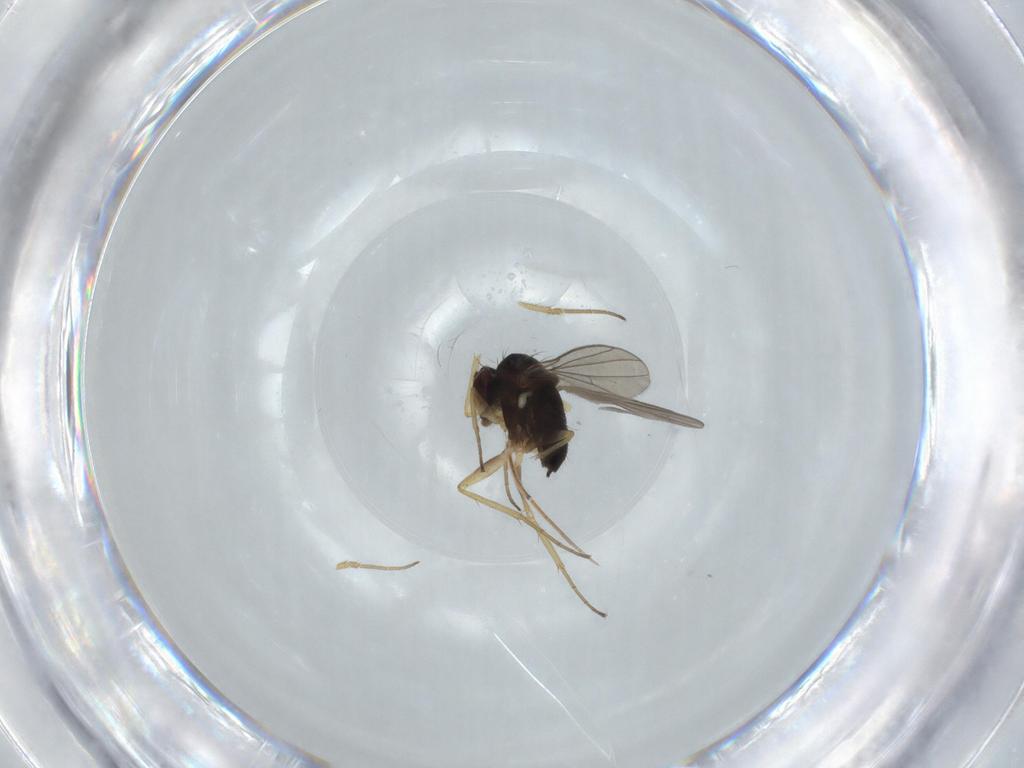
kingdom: Animalia
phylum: Arthropoda
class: Insecta
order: Diptera
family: Dolichopodidae
